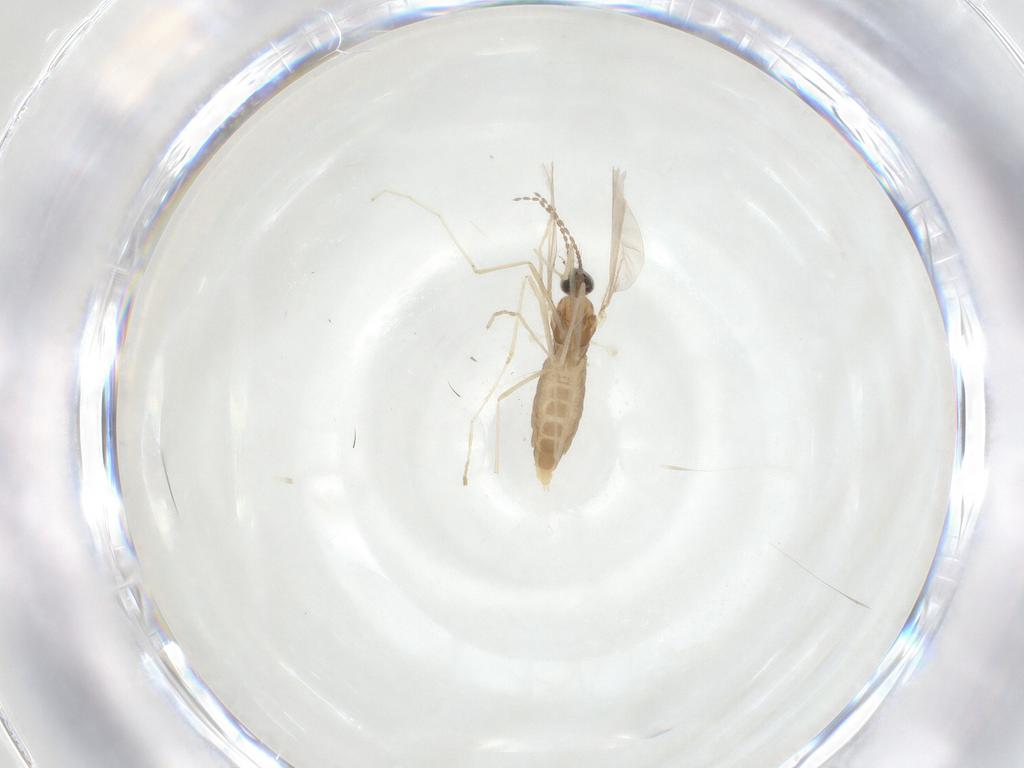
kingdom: Animalia
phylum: Arthropoda
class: Insecta
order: Diptera
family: Cecidomyiidae
